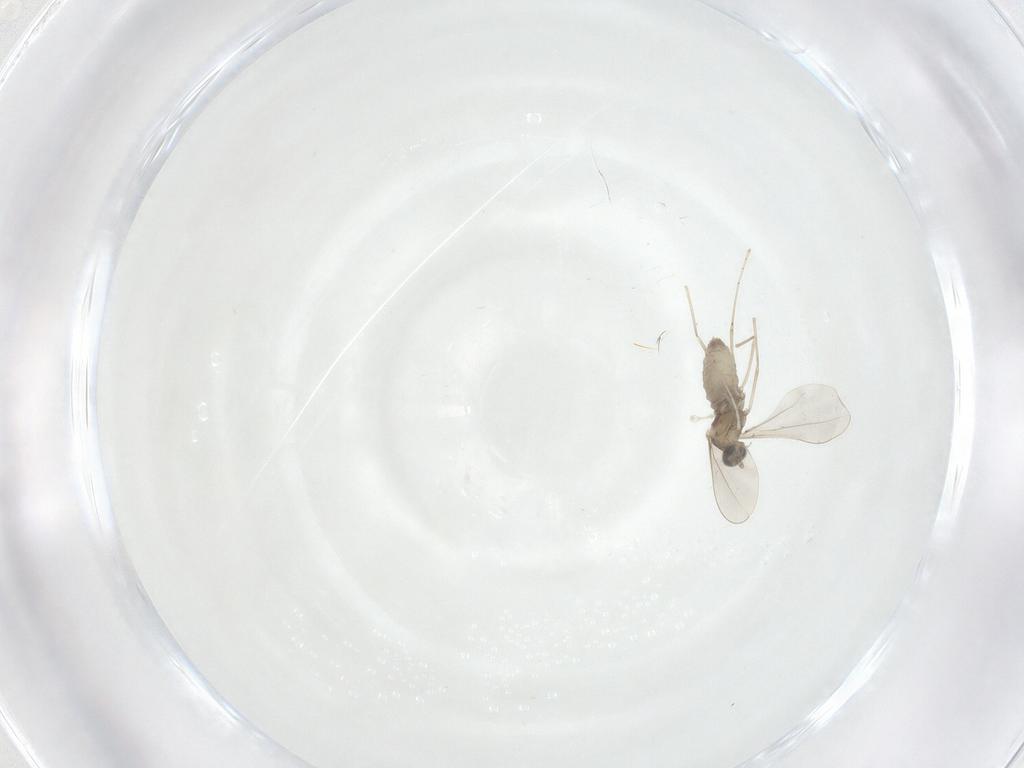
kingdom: Animalia
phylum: Arthropoda
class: Insecta
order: Diptera
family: Cecidomyiidae
